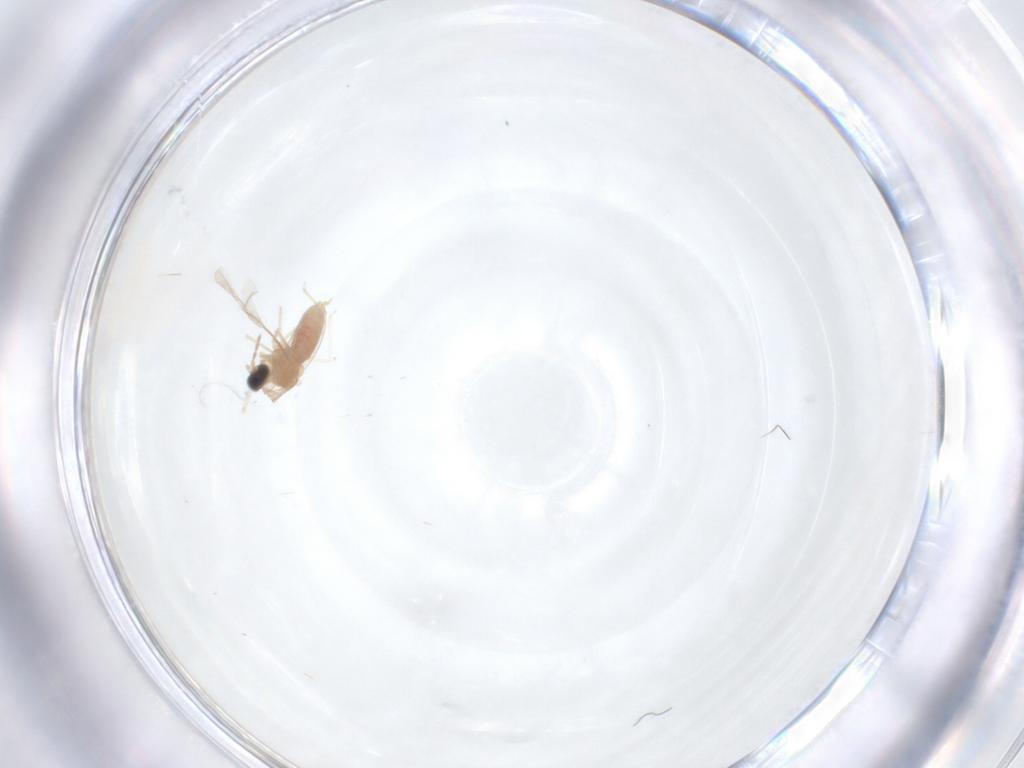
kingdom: Animalia
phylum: Arthropoda
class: Insecta
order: Diptera
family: Cecidomyiidae
